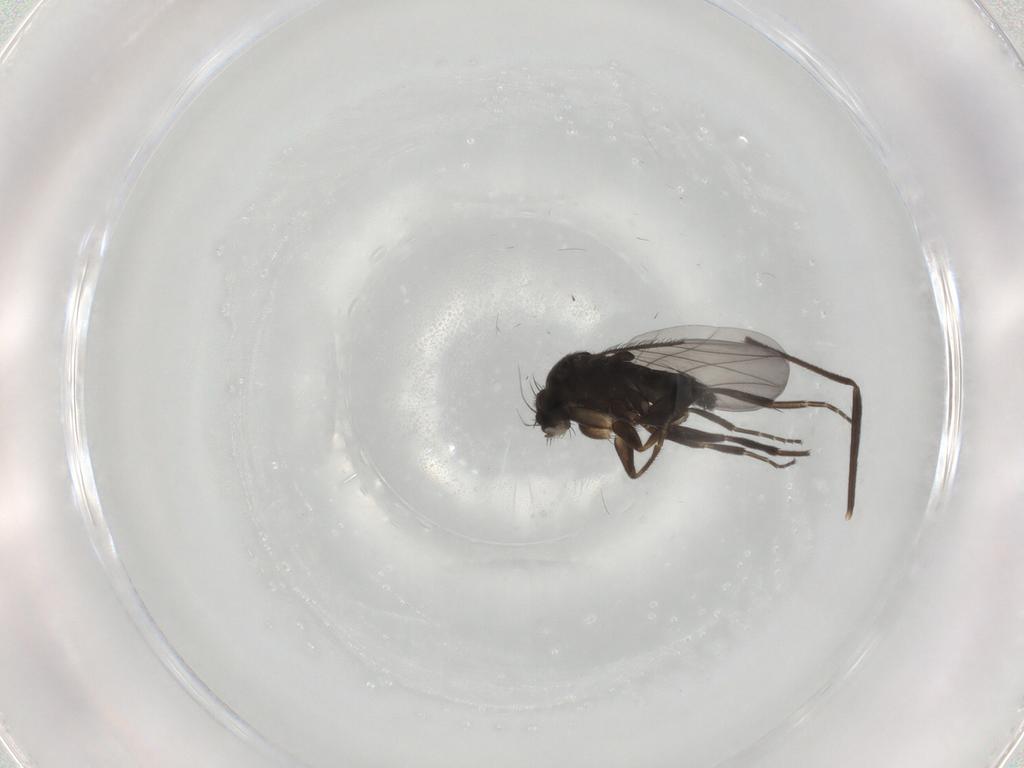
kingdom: Animalia
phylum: Arthropoda
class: Insecta
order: Diptera
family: Phoridae
